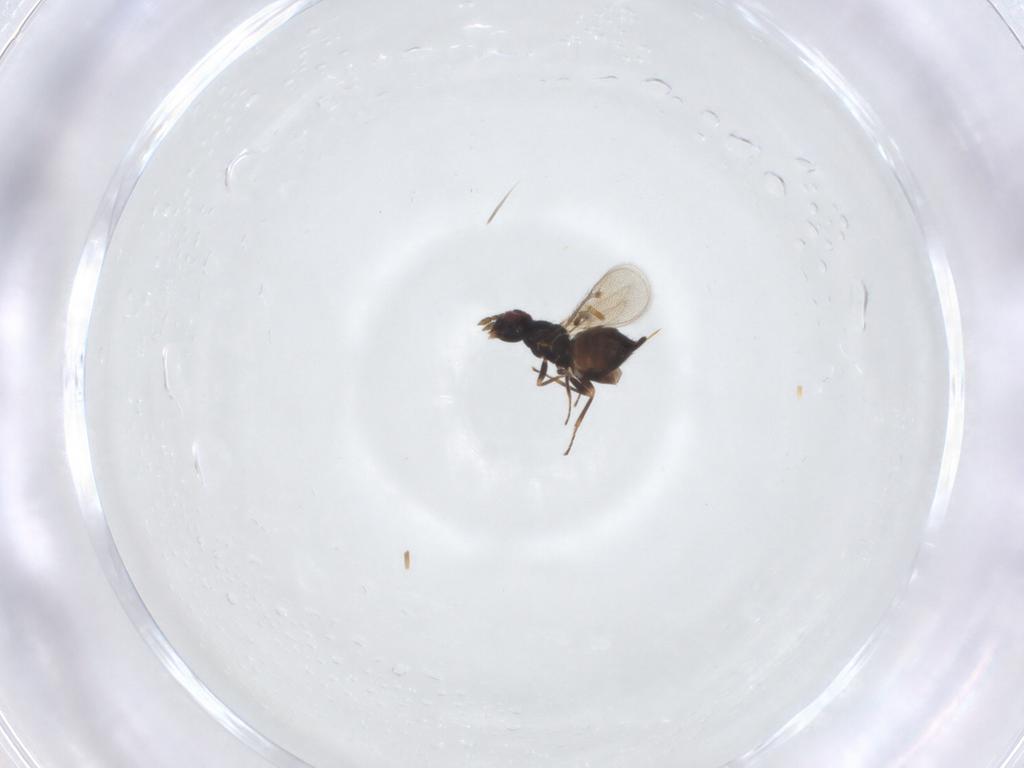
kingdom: Animalia
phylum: Arthropoda
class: Insecta
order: Hymenoptera
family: Eulophidae
